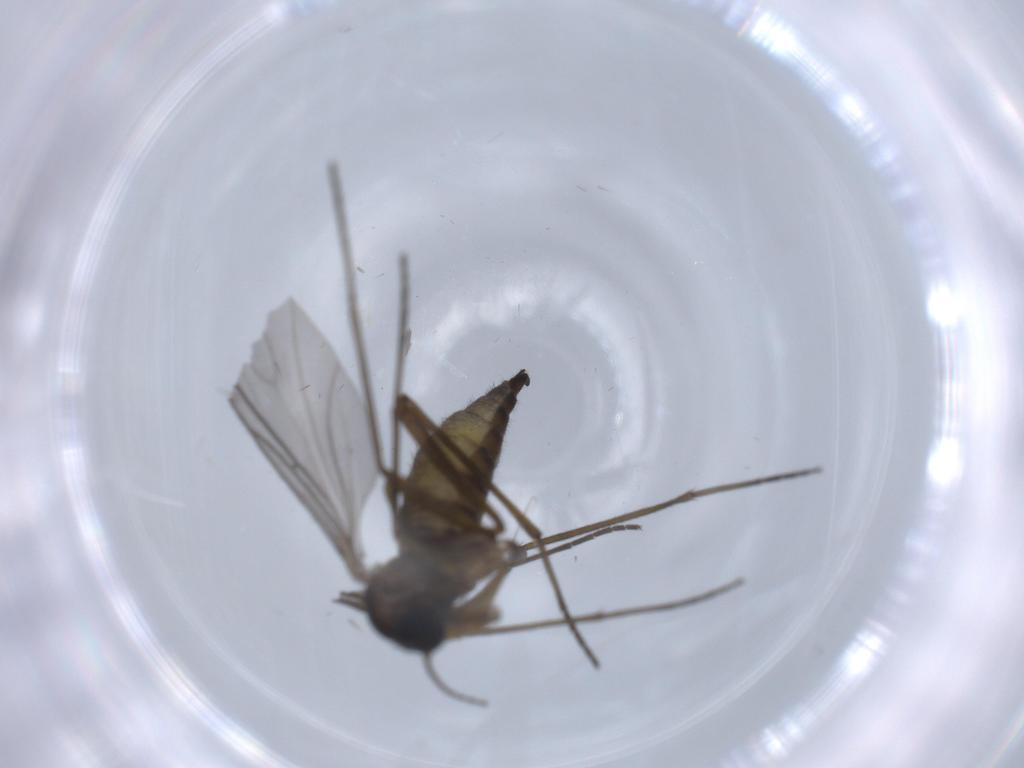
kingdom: Animalia
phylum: Arthropoda
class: Insecta
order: Diptera
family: Sciaridae
